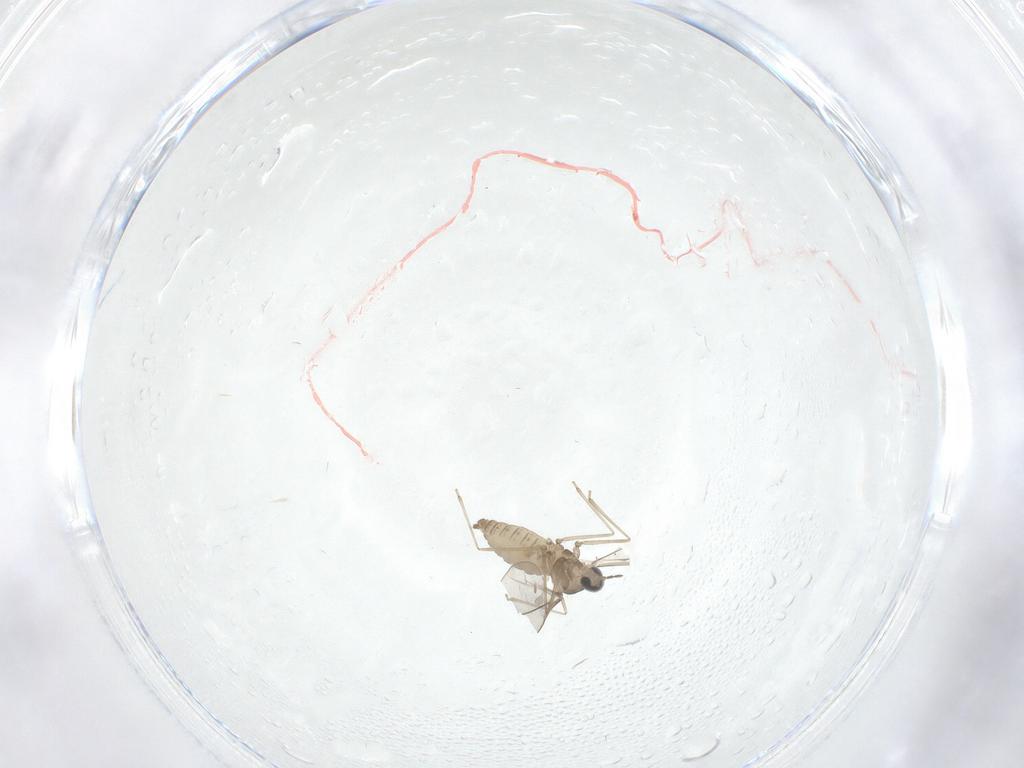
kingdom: Animalia
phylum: Arthropoda
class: Insecta
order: Diptera
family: Cecidomyiidae
